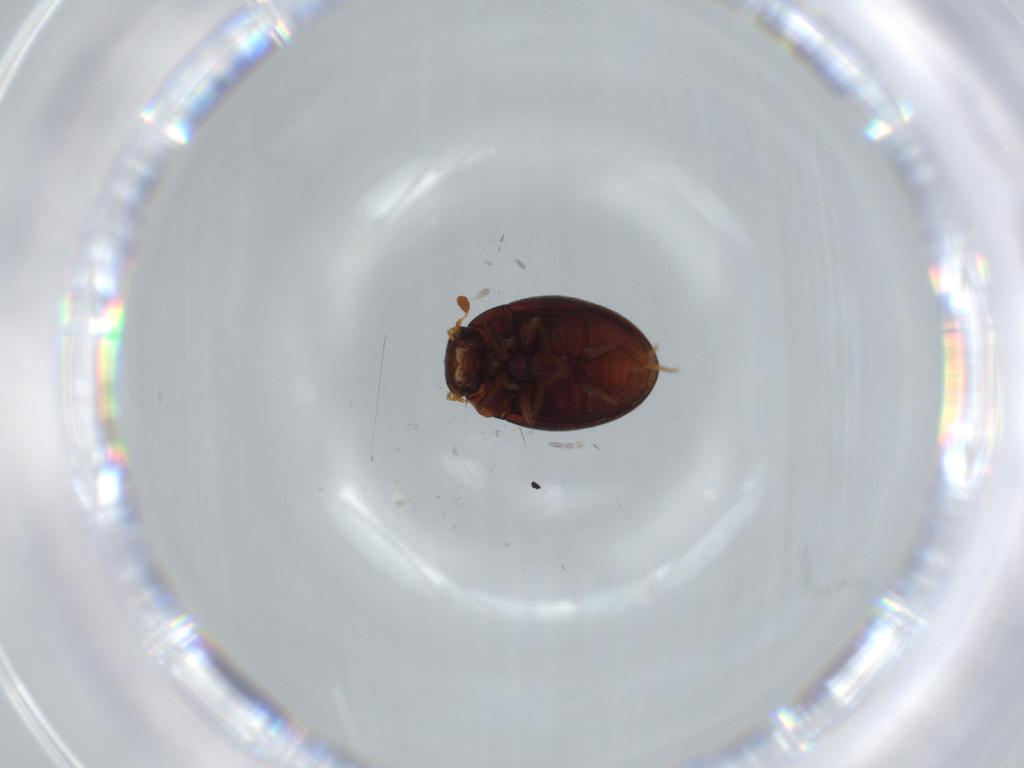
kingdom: Animalia
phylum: Arthropoda
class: Insecta
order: Coleoptera
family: Hydrophilidae
